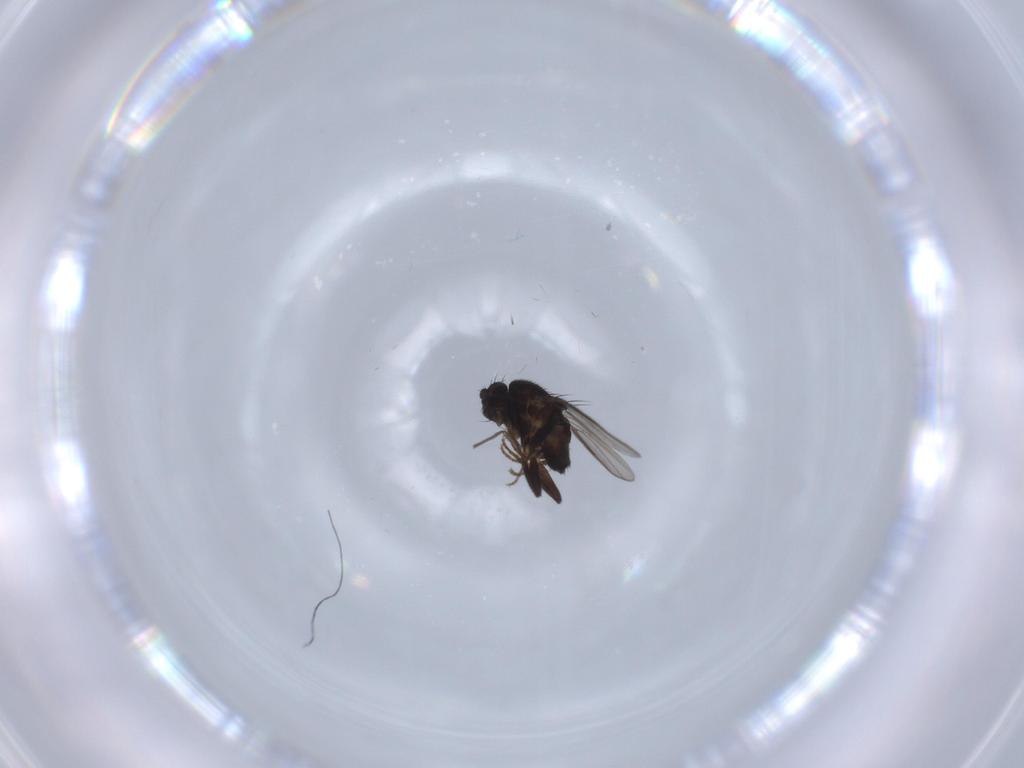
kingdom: Animalia
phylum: Arthropoda
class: Insecta
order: Diptera
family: Sphaeroceridae
